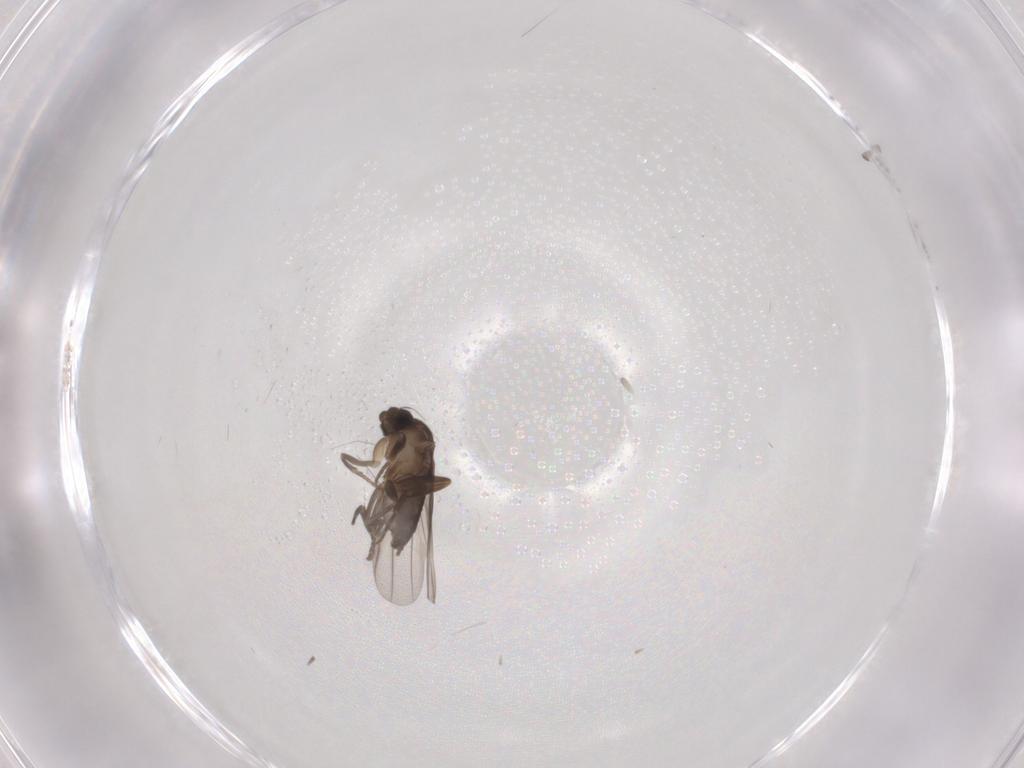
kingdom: Animalia
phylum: Arthropoda
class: Insecta
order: Diptera
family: Phoridae
